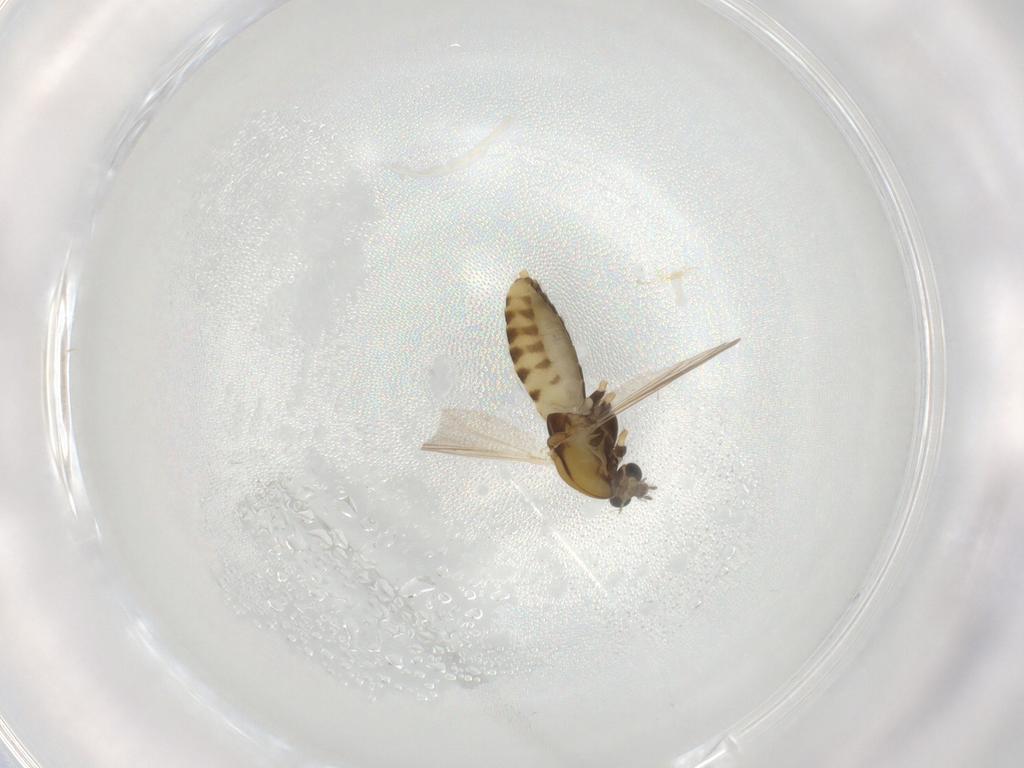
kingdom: Animalia
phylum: Arthropoda
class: Insecta
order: Diptera
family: Chironomidae
